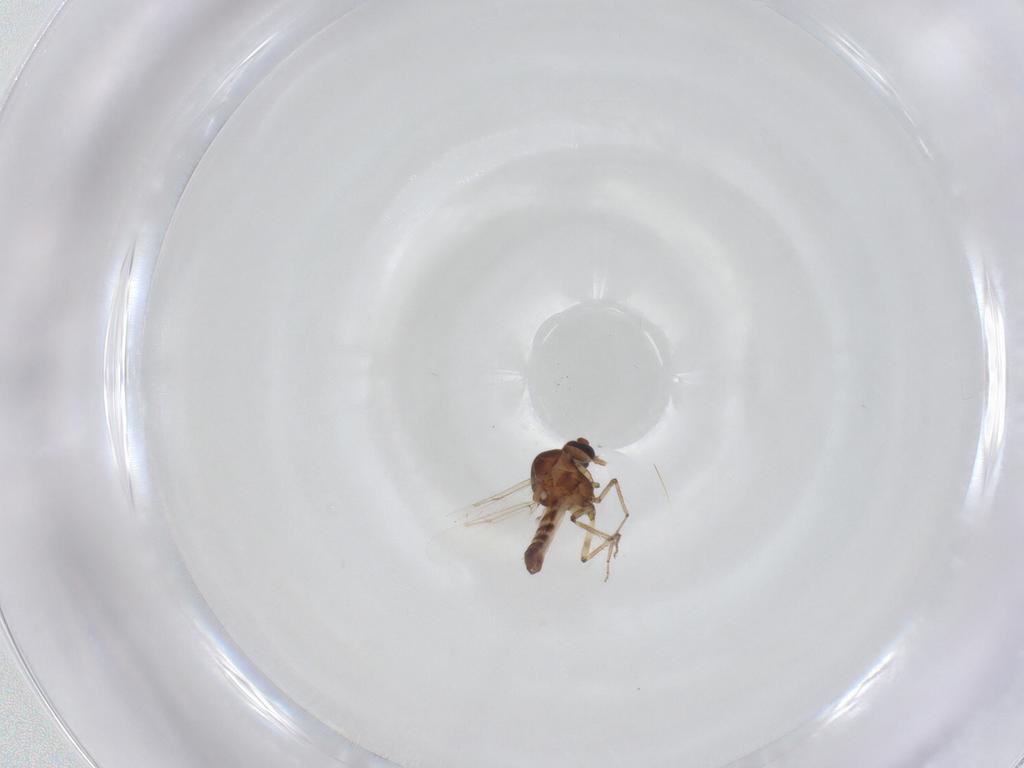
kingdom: Animalia
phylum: Arthropoda
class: Insecta
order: Diptera
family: Ceratopogonidae
